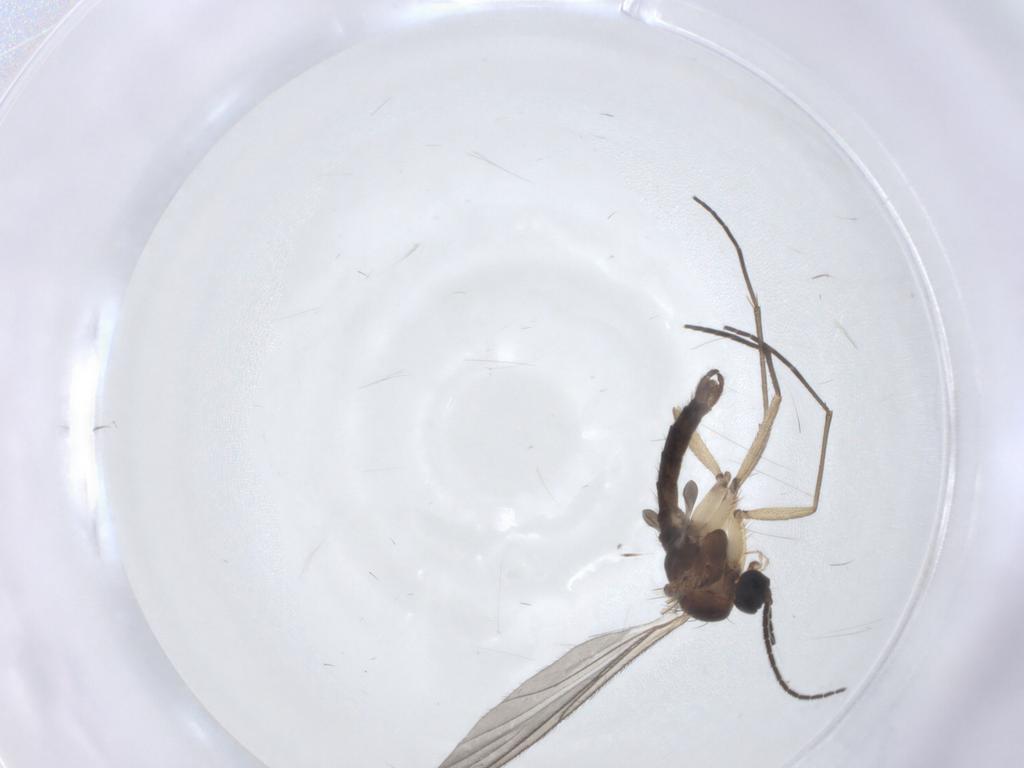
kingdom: Animalia
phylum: Arthropoda
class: Insecta
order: Diptera
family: Sciaridae
